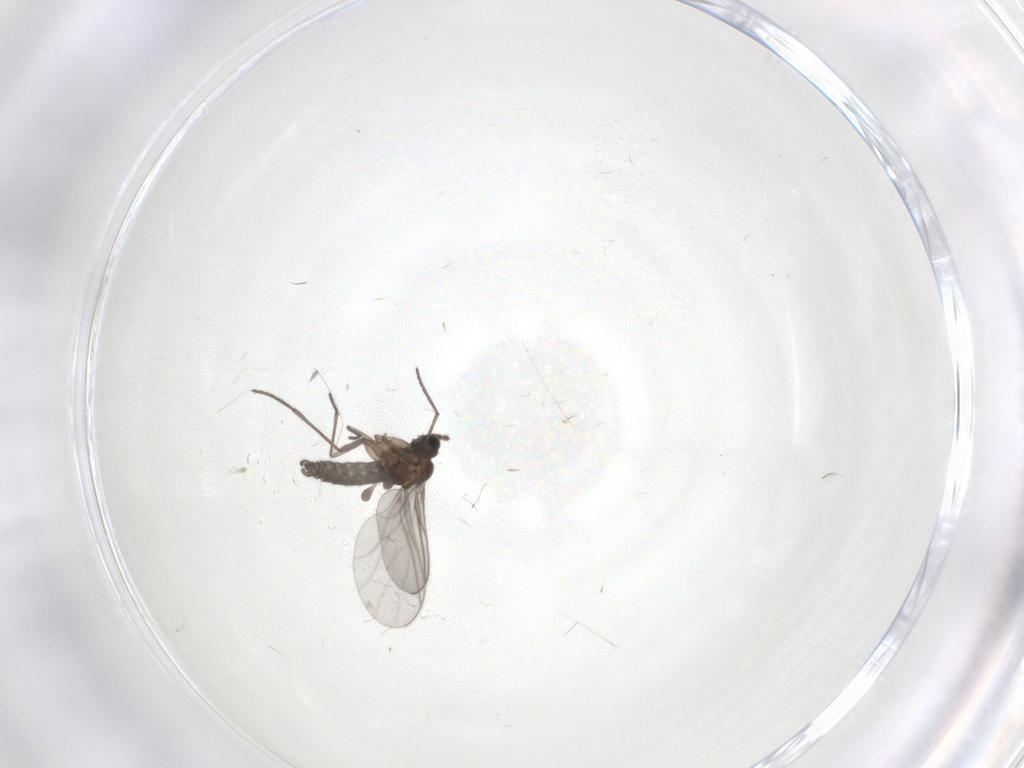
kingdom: Animalia
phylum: Arthropoda
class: Insecta
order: Diptera
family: Sciaridae
